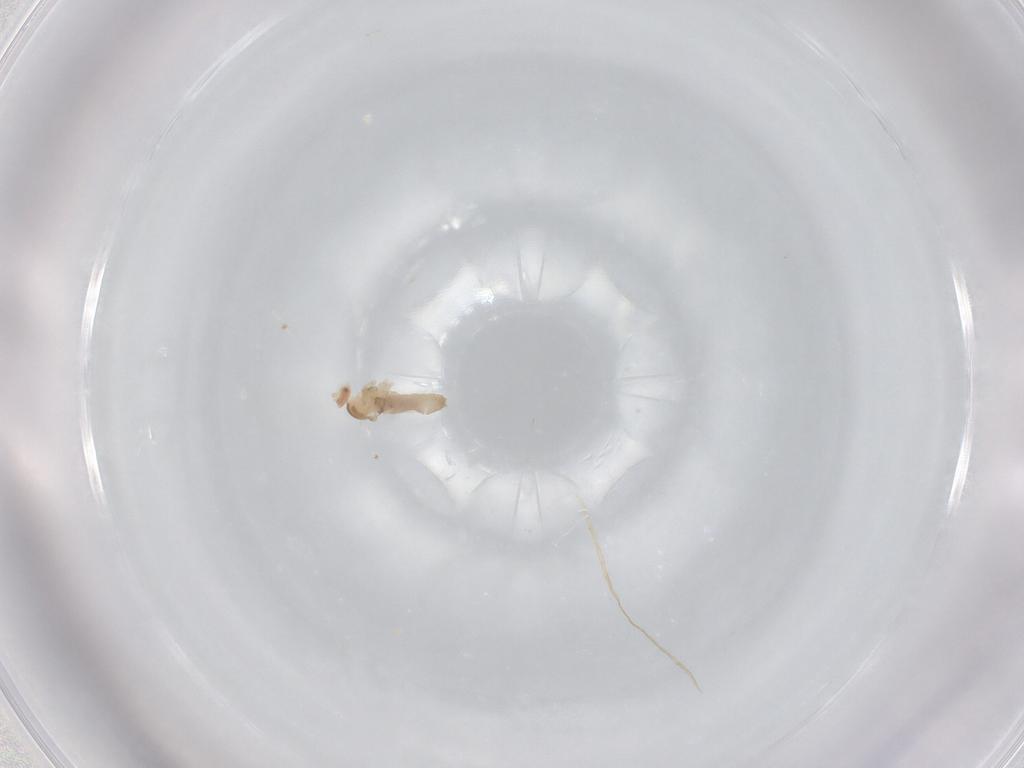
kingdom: Animalia
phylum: Arthropoda
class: Insecta
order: Diptera
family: Cecidomyiidae
